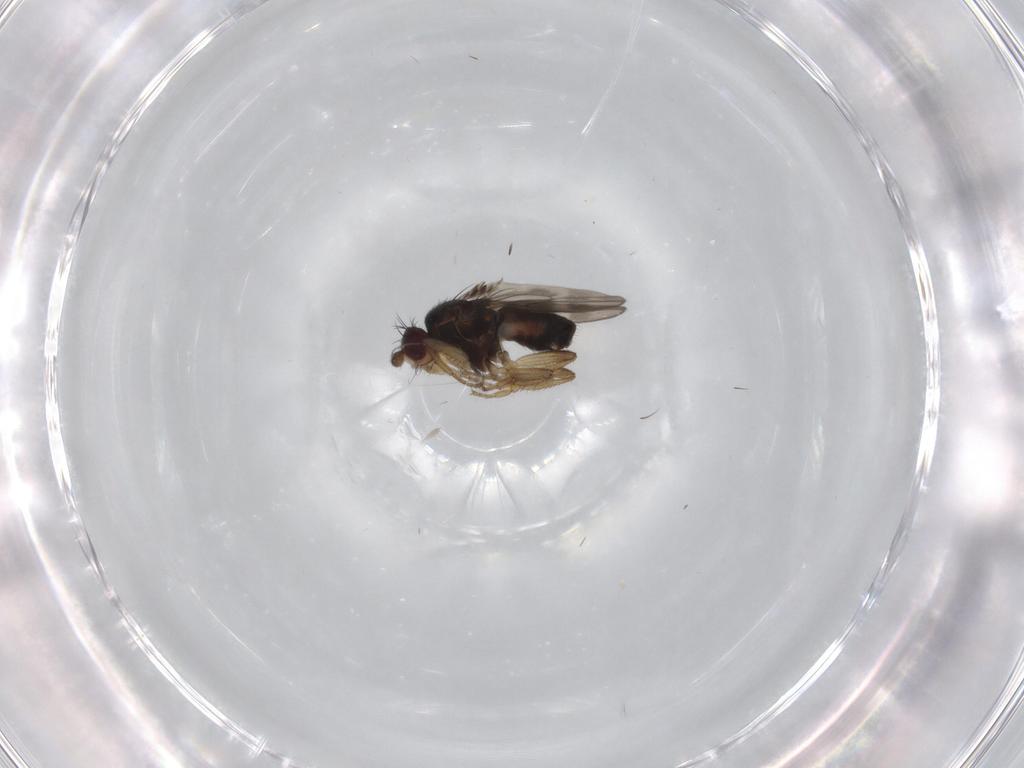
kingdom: Animalia
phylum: Arthropoda
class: Insecta
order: Diptera
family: Sphaeroceridae
